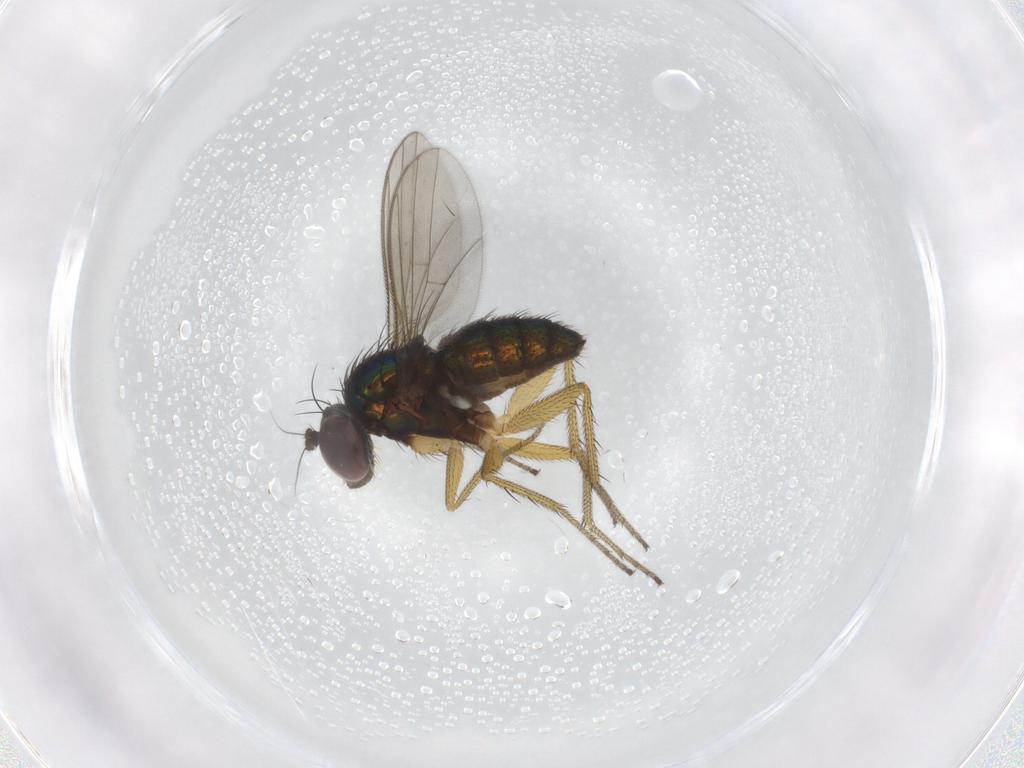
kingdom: Animalia
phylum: Arthropoda
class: Insecta
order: Diptera
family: Dolichopodidae
